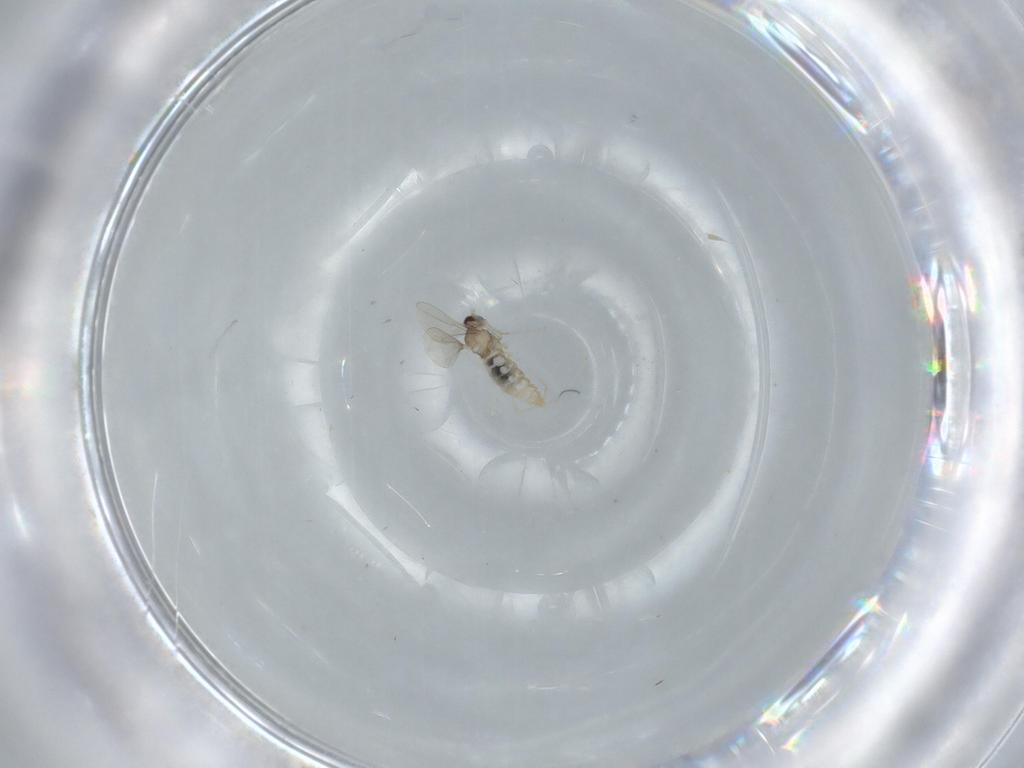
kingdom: Animalia
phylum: Arthropoda
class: Insecta
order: Diptera
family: Cecidomyiidae
